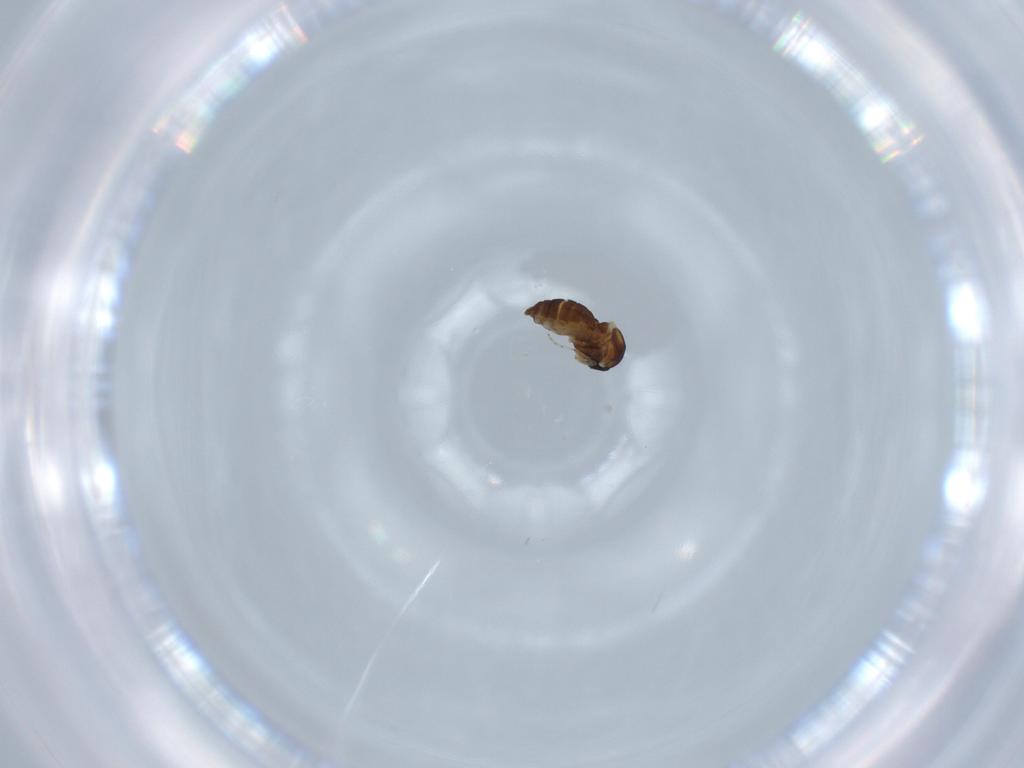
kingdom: Animalia
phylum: Arthropoda
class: Insecta
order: Diptera
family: Ceratopogonidae
